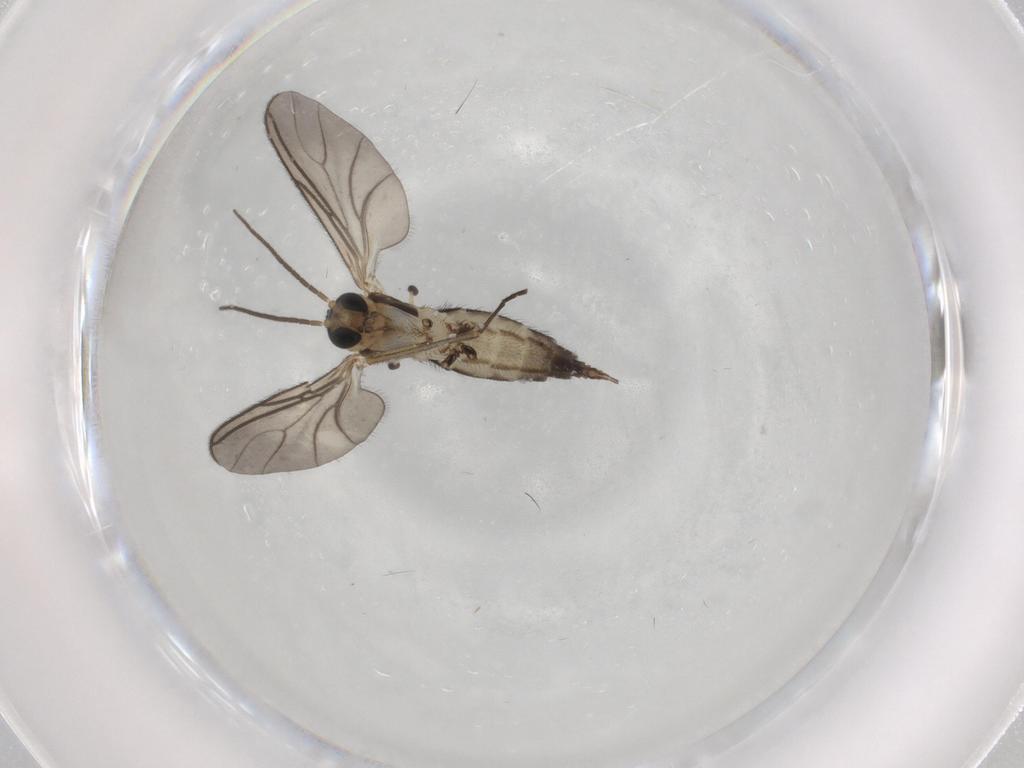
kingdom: Animalia
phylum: Arthropoda
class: Insecta
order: Diptera
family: Sciaridae
